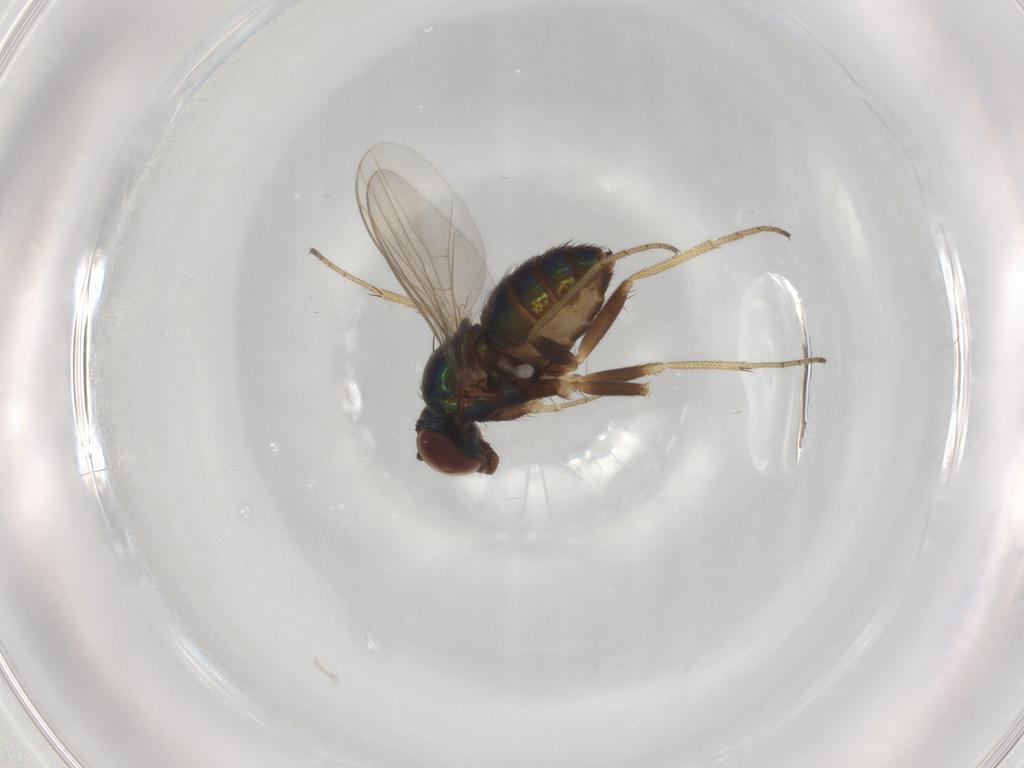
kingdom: Animalia
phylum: Arthropoda
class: Insecta
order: Diptera
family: Dolichopodidae
